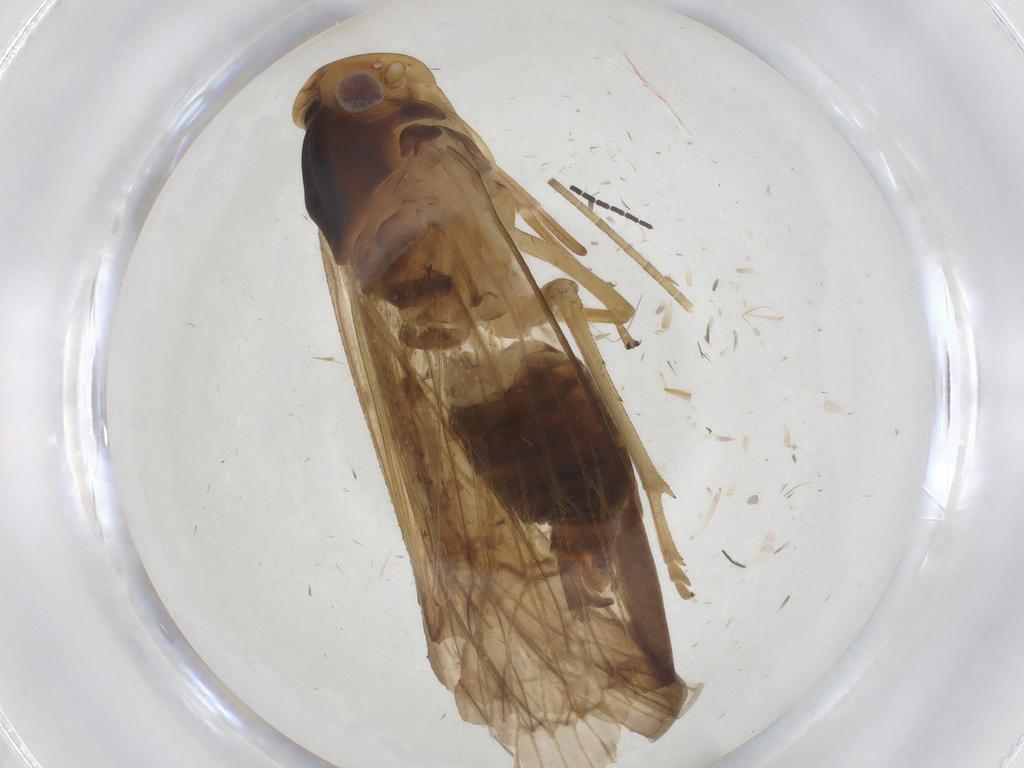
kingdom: Animalia
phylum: Arthropoda
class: Insecta
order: Hemiptera
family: Cixiidae
